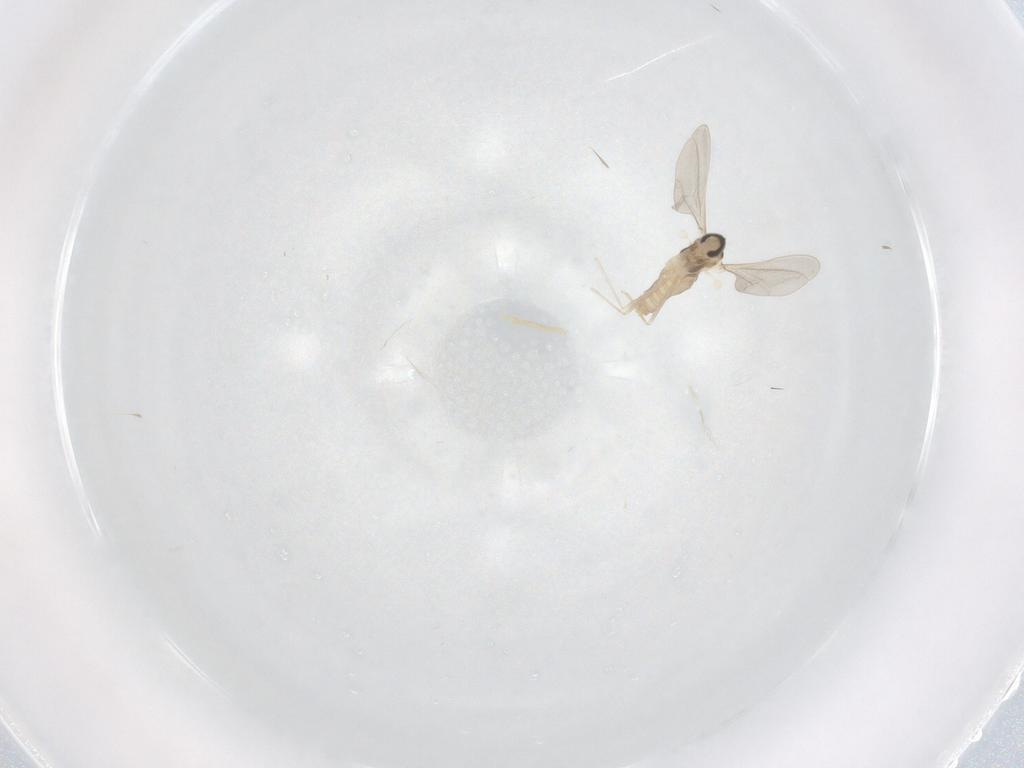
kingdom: Animalia
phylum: Arthropoda
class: Insecta
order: Diptera
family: Cecidomyiidae
